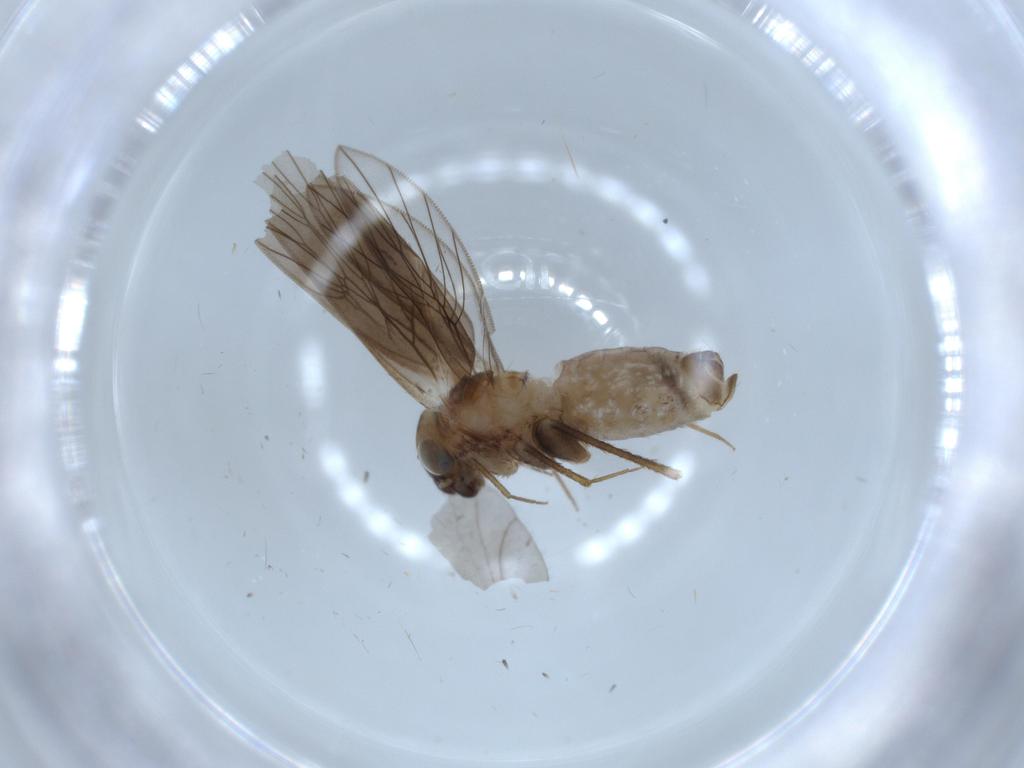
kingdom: Animalia
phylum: Arthropoda
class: Insecta
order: Psocodea
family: Lepidopsocidae
